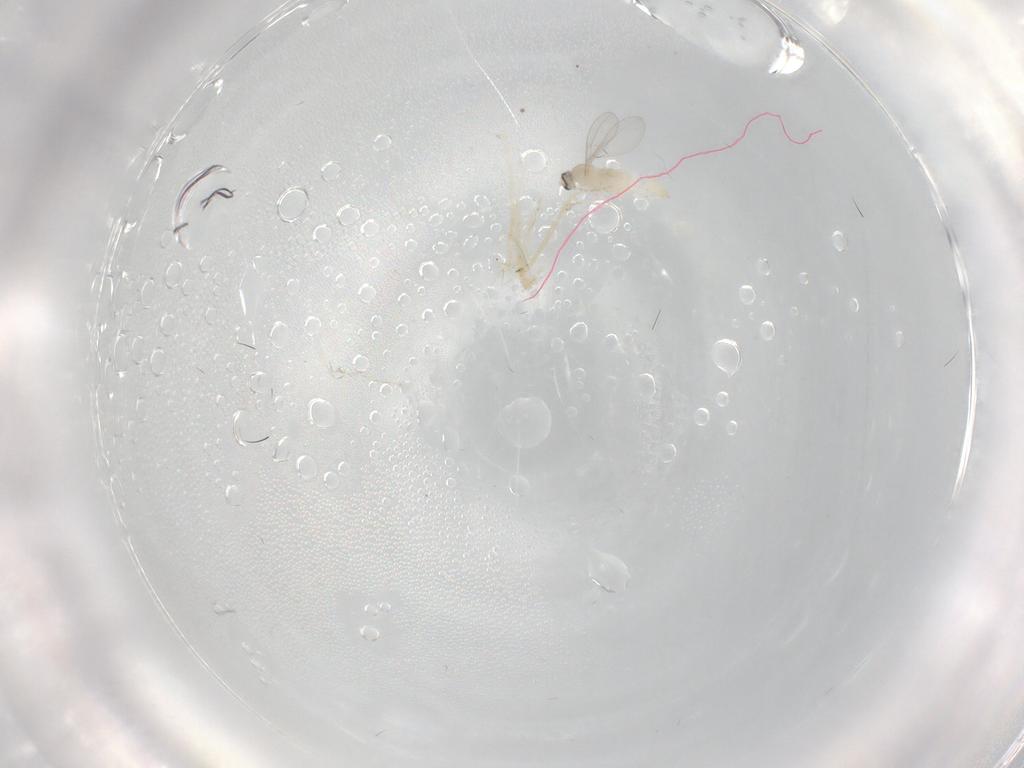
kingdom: Animalia
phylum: Arthropoda
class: Insecta
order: Diptera
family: Cecidomyiidae
